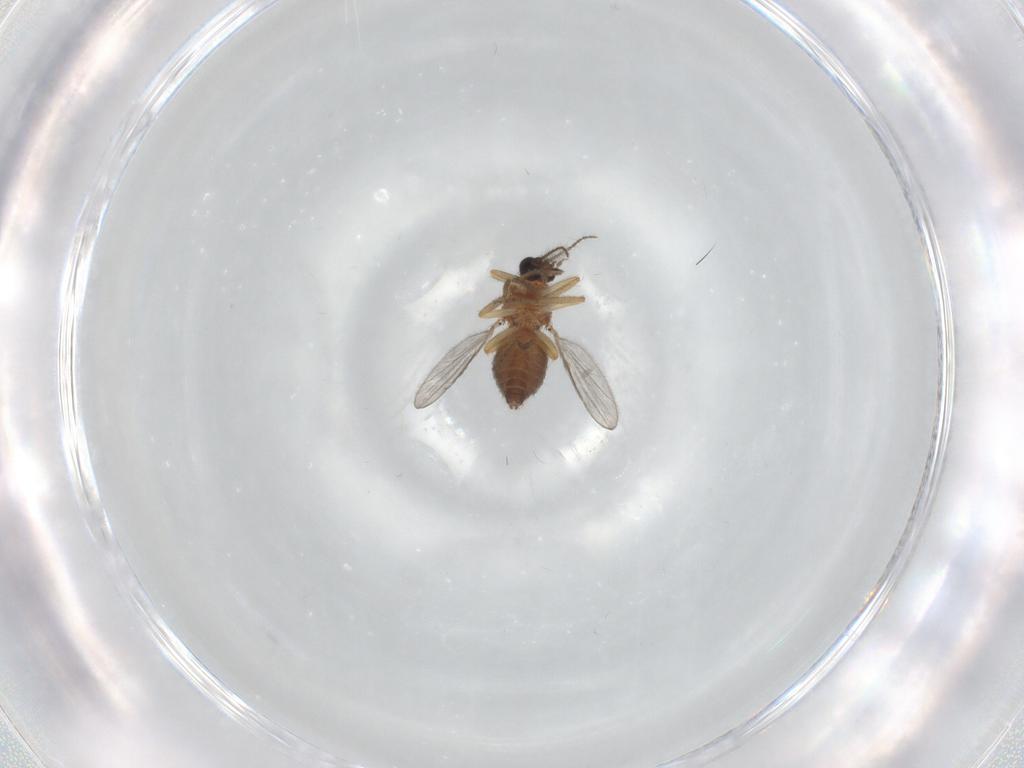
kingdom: Animalia
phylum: Arthropoda
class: Insecta
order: Diptera
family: Ceratopogonidae
